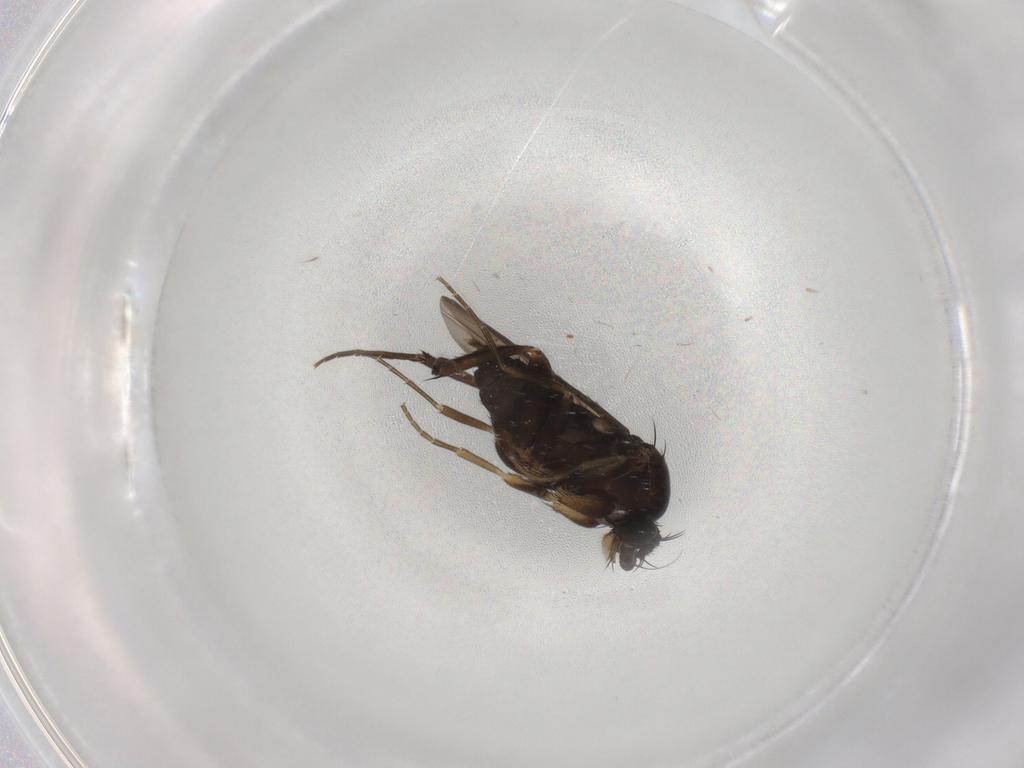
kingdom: Animalia
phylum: Arthropoda
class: Insecta
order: Diptera
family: Phoridae
